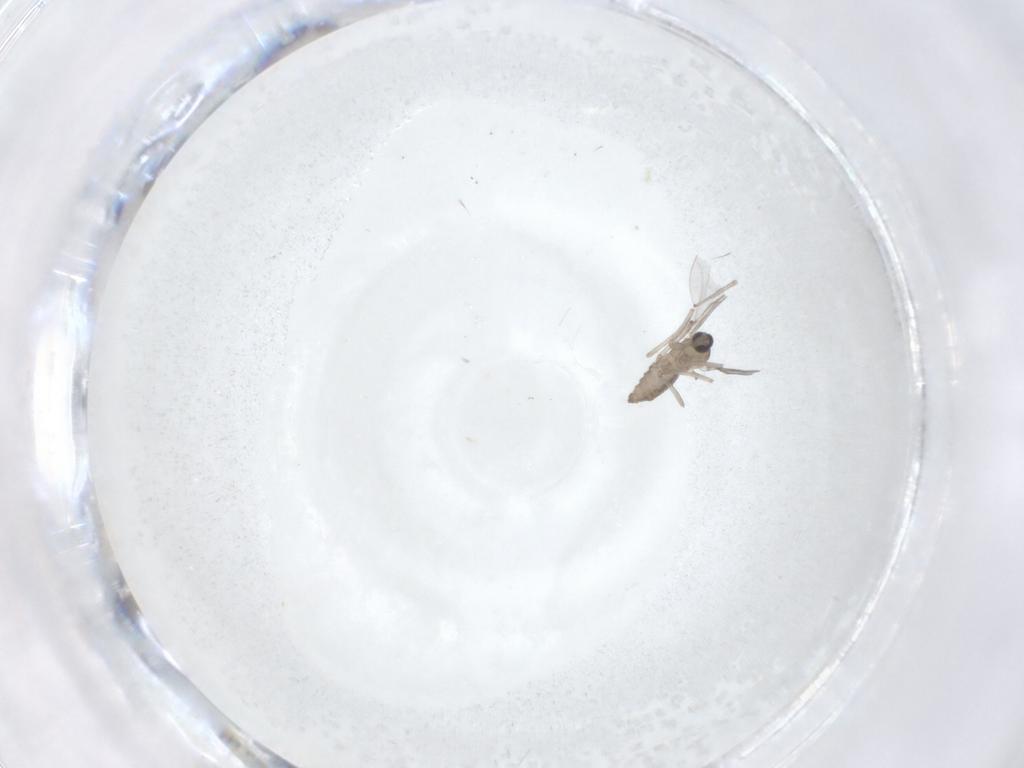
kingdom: Animalia
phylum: Arthropoda
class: Insecta
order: Diptera
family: Psychodidae
